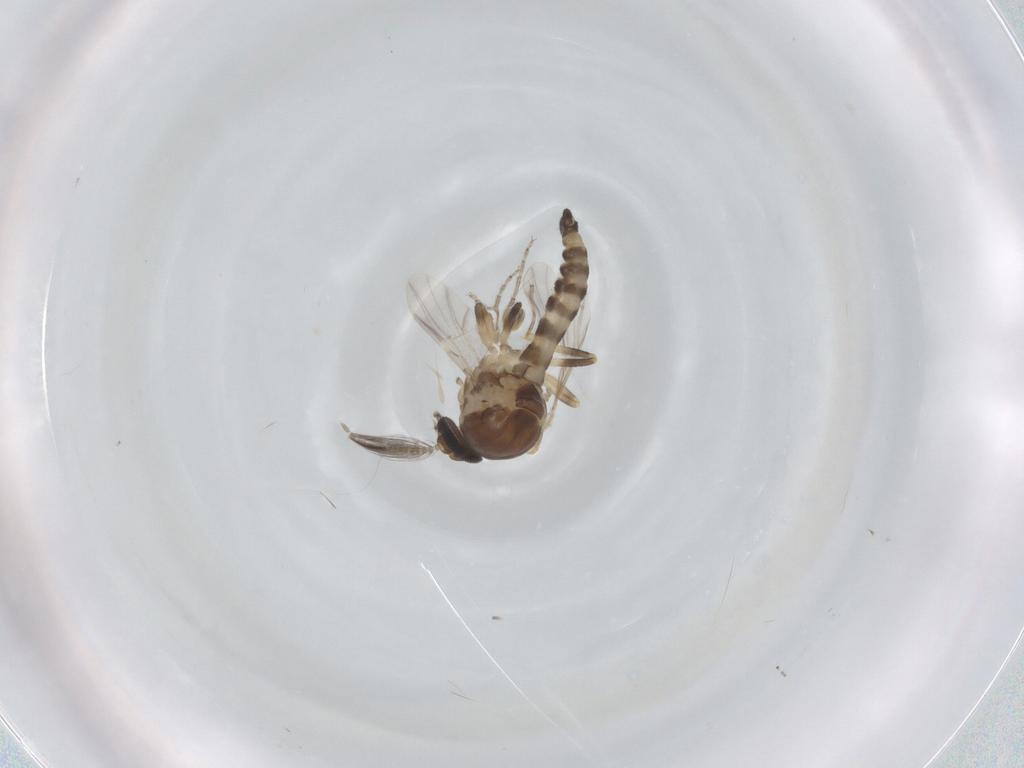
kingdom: Animalia
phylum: Arthropoda
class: Insecta
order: Diptera
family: Ceratopogonidae
